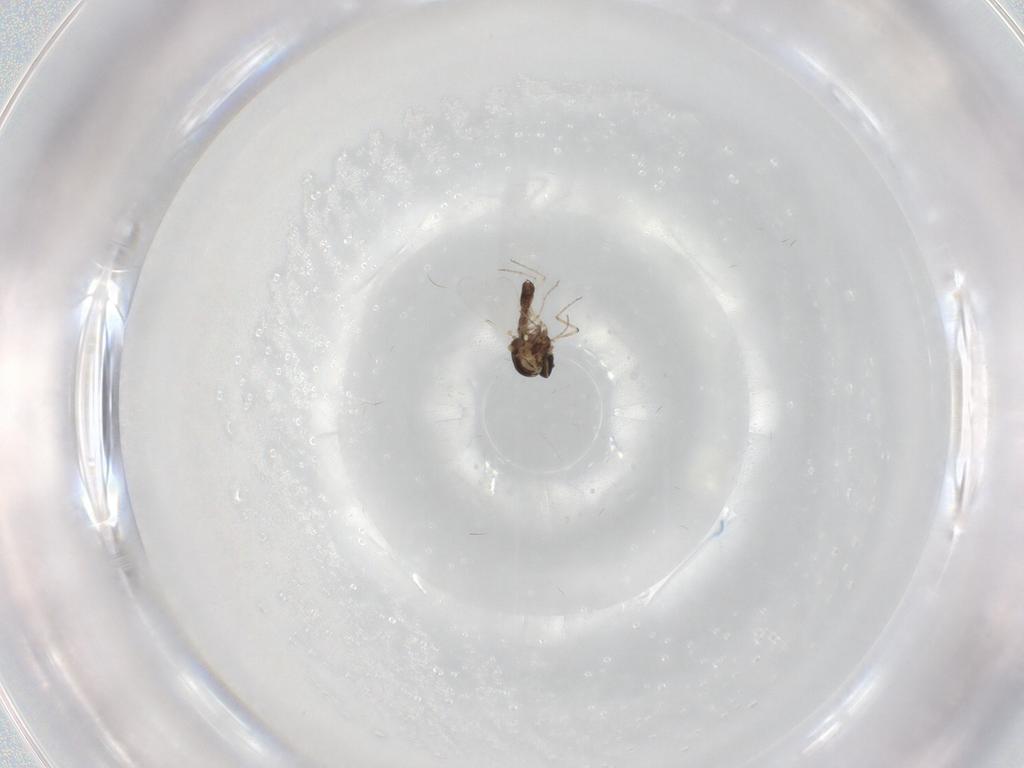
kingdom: Animalia
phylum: Arthropoda
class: Insecta
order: Diptera
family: Ceratopogonidae
